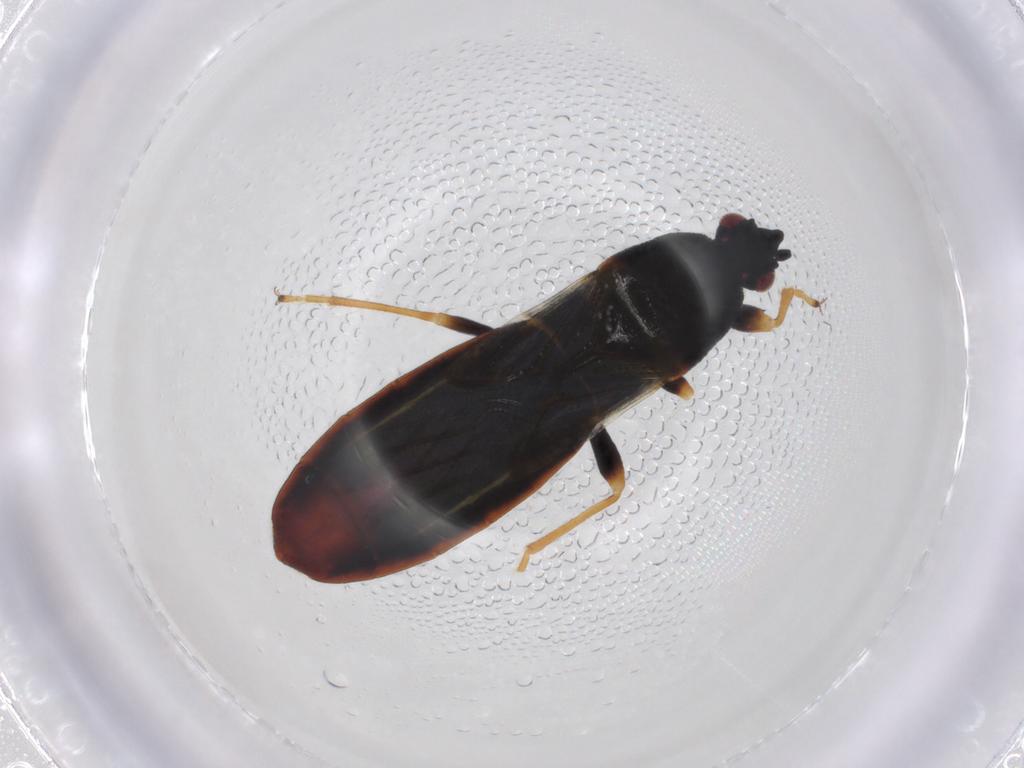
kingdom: Animalia
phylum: Arthropoda
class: Insecta
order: Hemiptera
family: Blissidae
